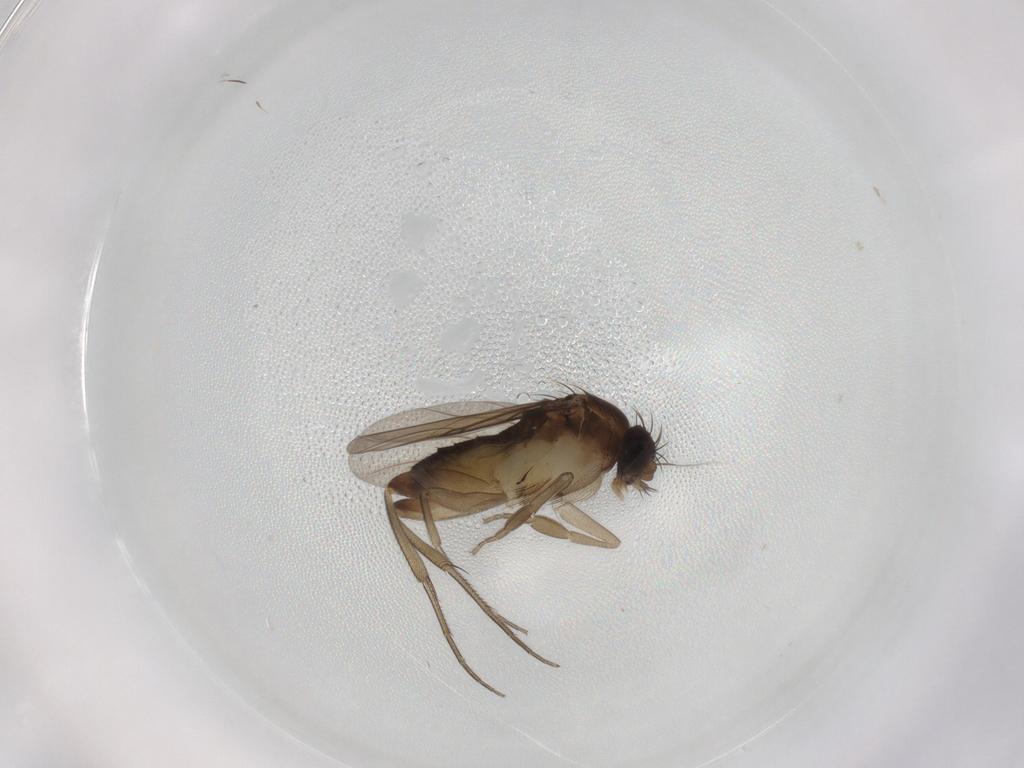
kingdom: Animalia
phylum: Arthropoda
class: Insecta
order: Diptera
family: Phoridae
